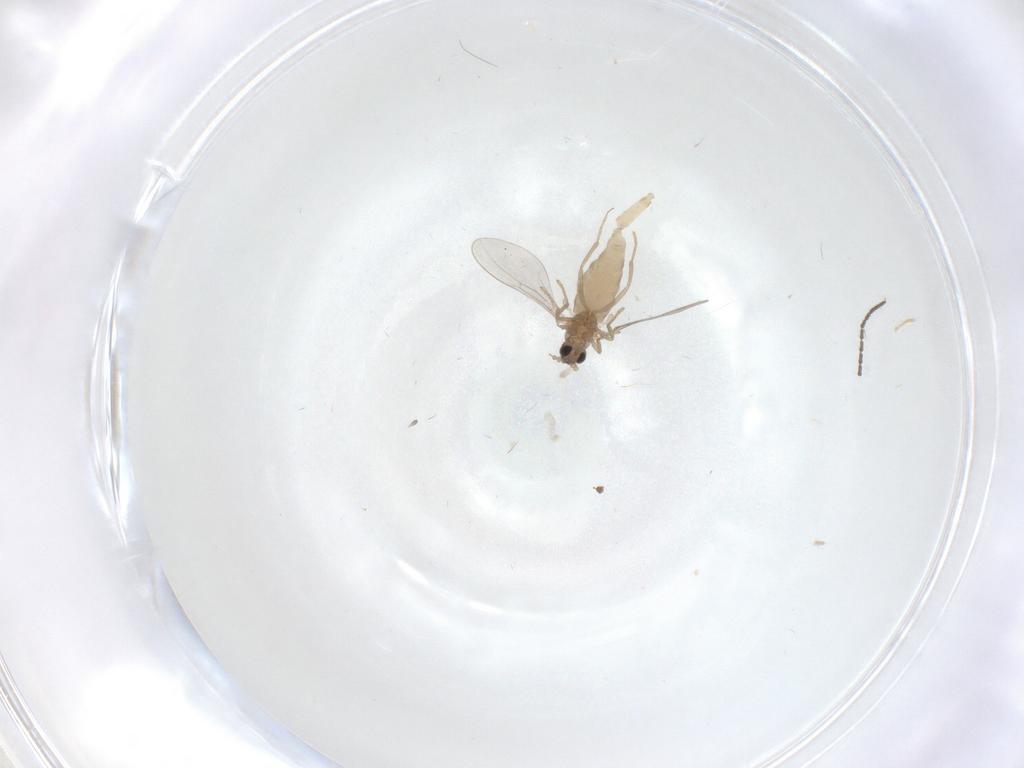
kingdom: Animalia
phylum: Arthropoda
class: Insecta
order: Diptera
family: Cecidomyiidae
